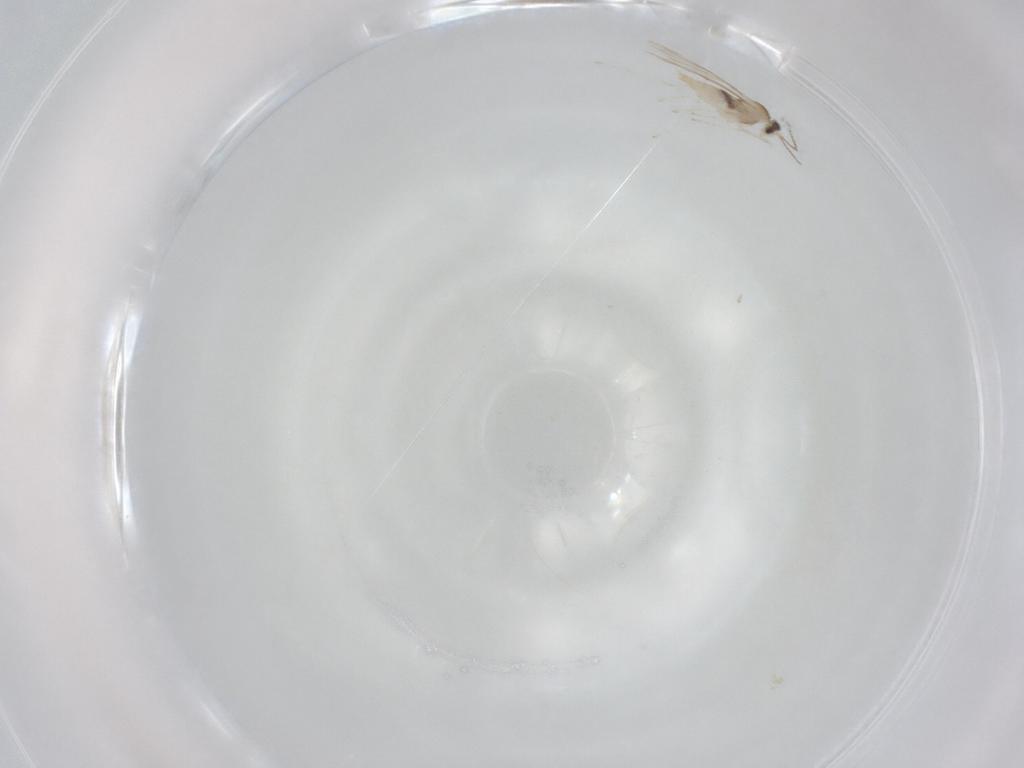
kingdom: Animalia
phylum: Arthropoda
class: Insecta
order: Diptera
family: Cecidomyiidae
